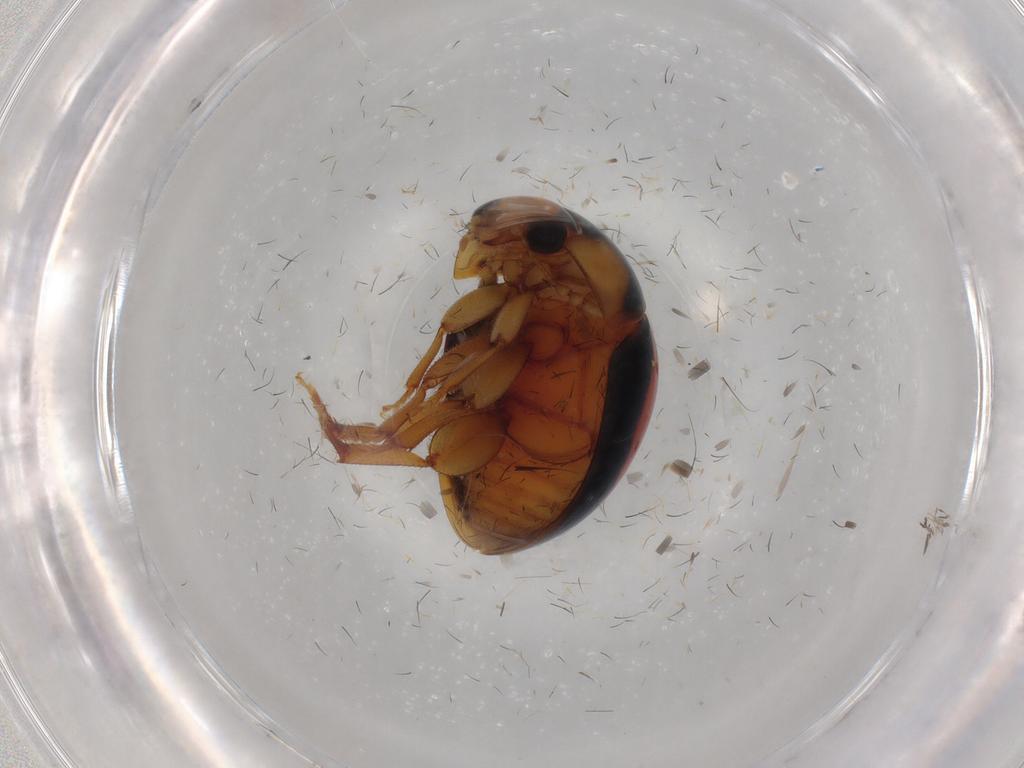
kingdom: Animalia
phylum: Arthropoda
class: Insecta
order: Coleoptera
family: Phalacridae
